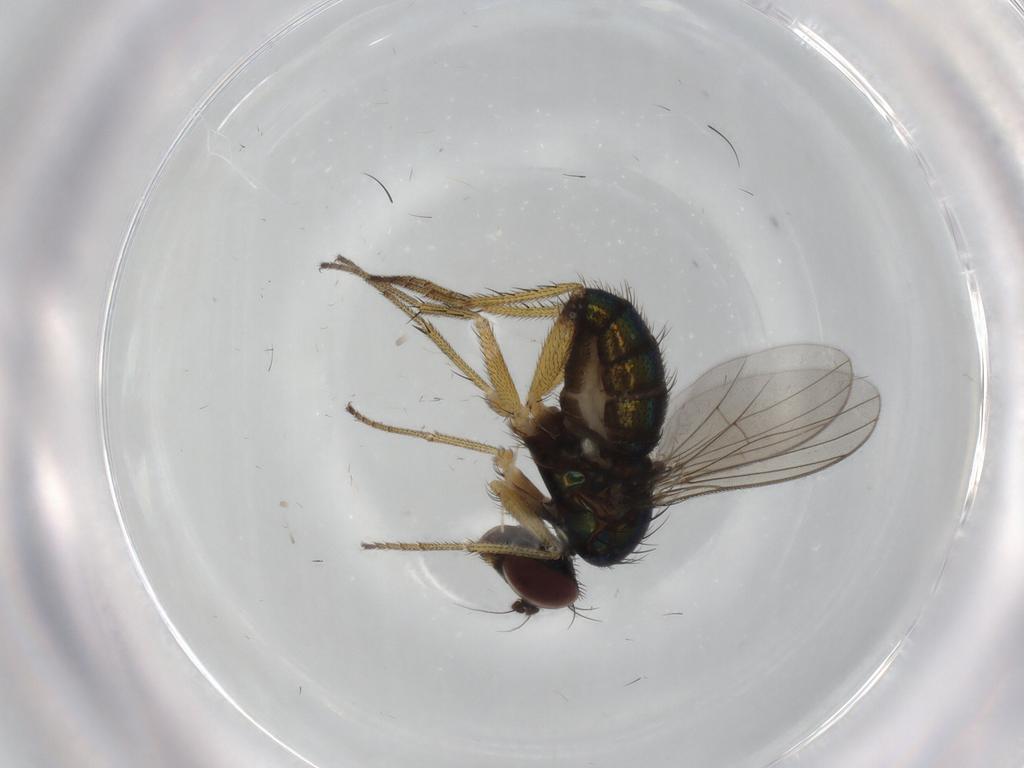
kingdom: Animalia
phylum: Arthropoda
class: Insecta
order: Diptera
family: Dolichopodidae
